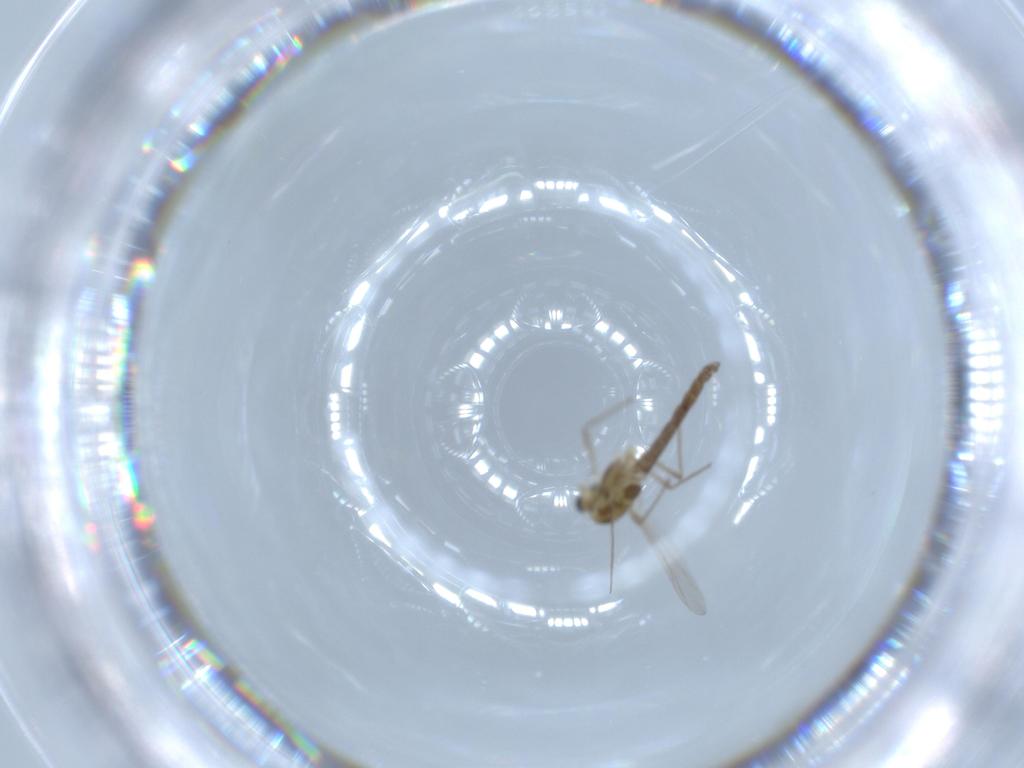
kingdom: Animalia
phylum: Arthropoda
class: Insecta
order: Diptera
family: Chironomidae
